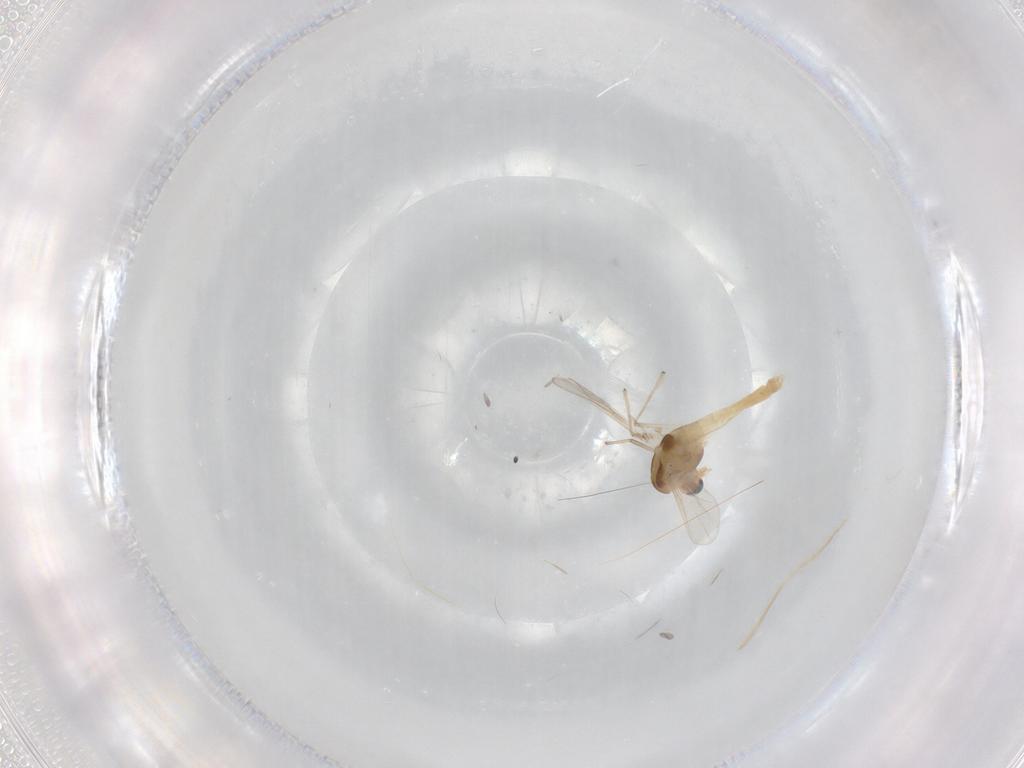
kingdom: Animalia
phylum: Arthropoda
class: Insecta
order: Diptera
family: Chironomidae
